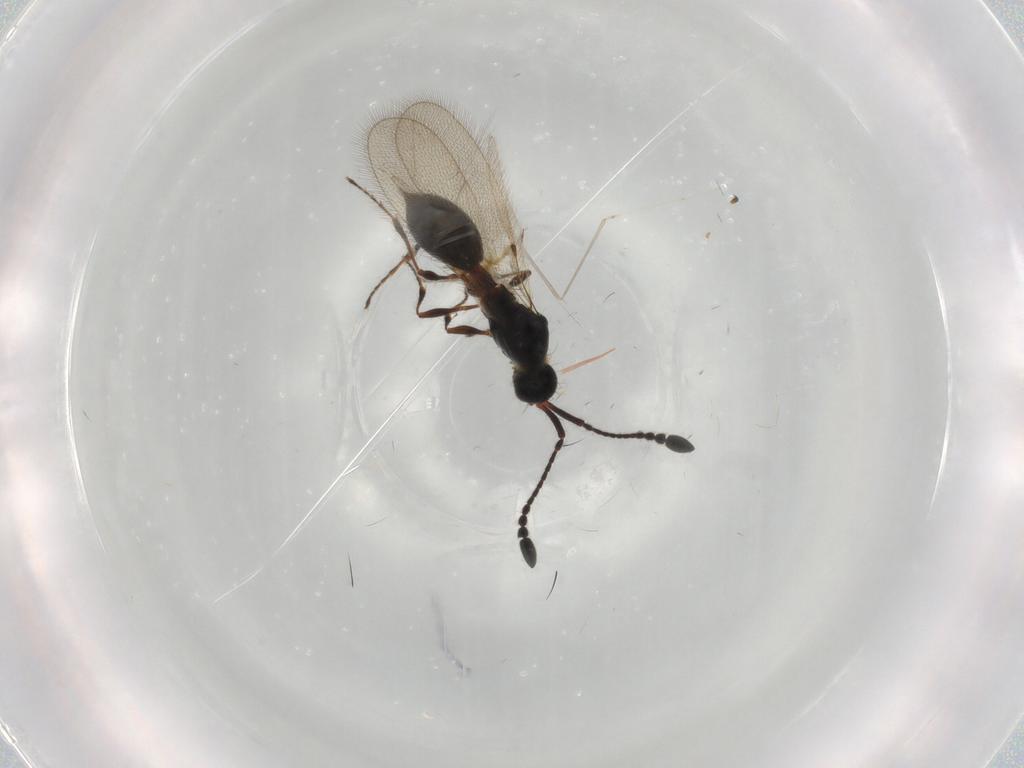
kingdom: Animalia
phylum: Arthropoda
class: Insecta
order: Hymenoptera
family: Diapriidae
